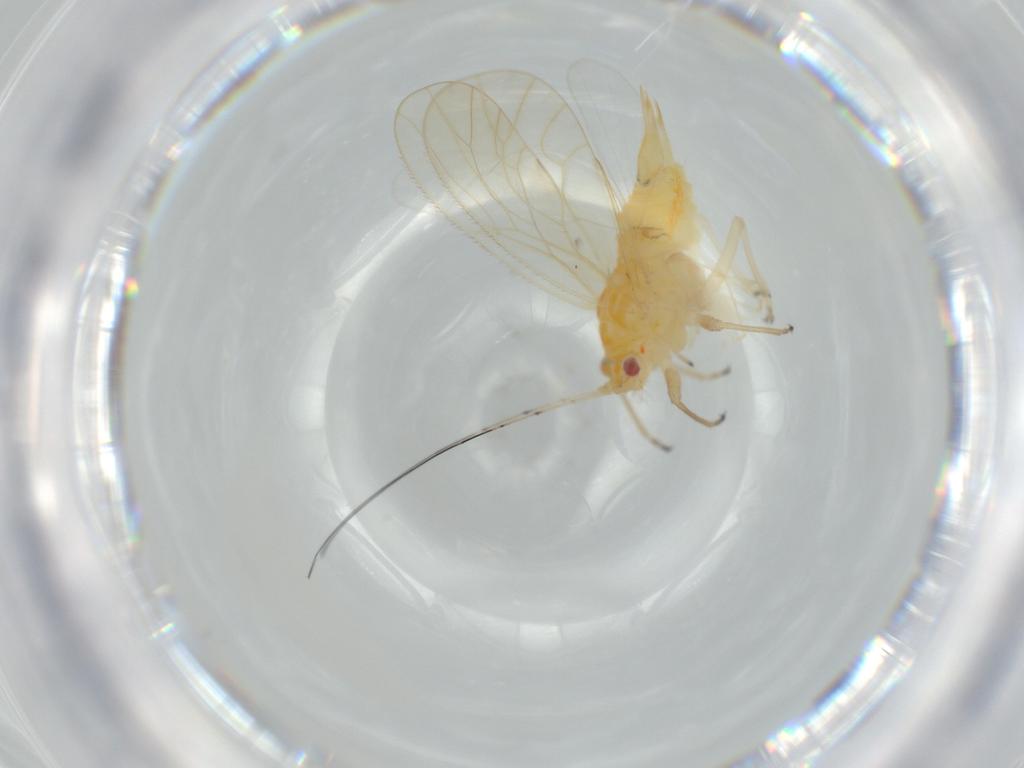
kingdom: Animalia
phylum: Arthropoda
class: Insecta
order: Hemiptera
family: Psyllidae
